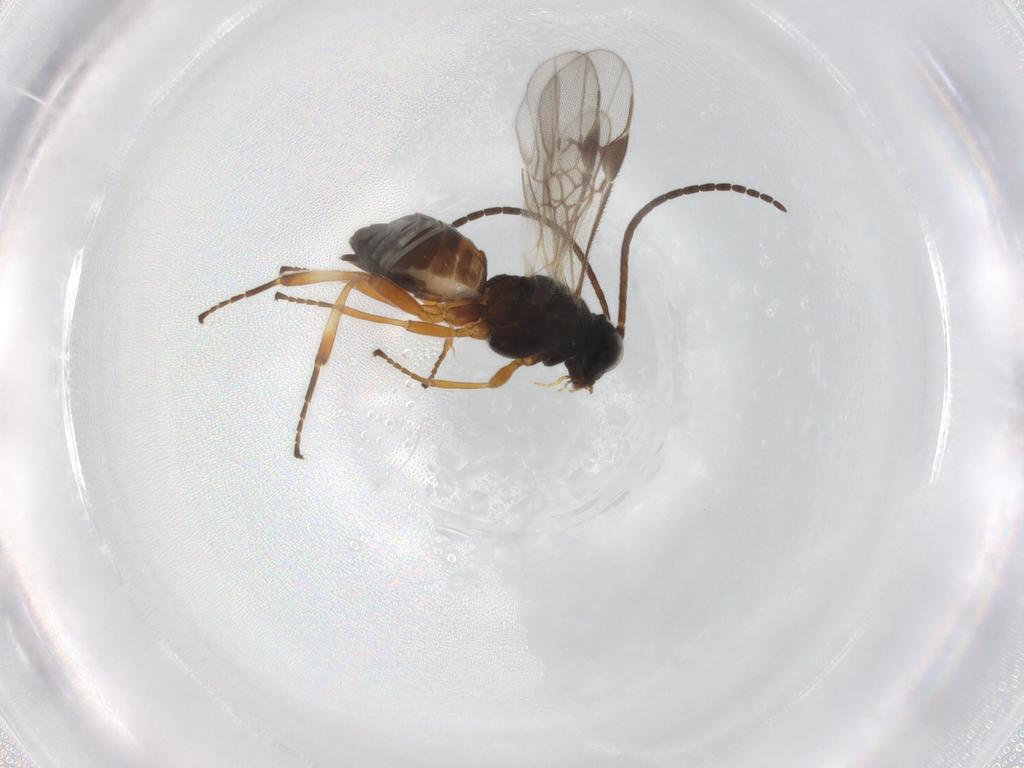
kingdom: Animalia
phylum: Arthropoda
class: Insecta
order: Hymenoptera
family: Braconidae
